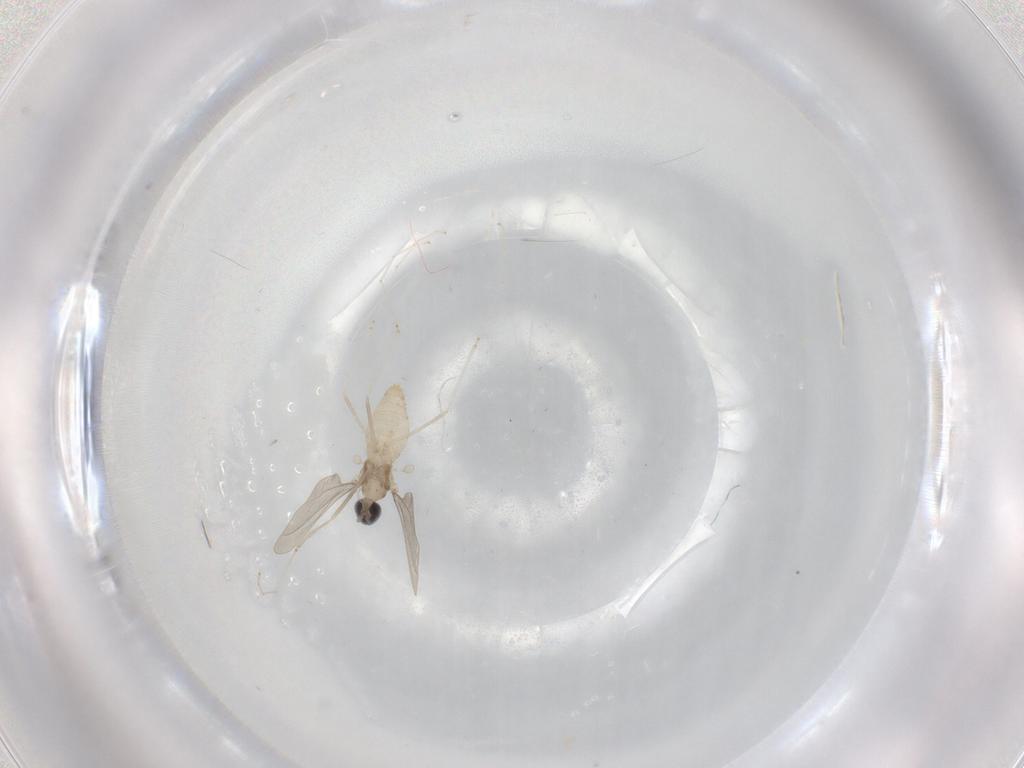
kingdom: Animalia
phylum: Arthropoda
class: Insecta
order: Diptera
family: Cecidomyiidae
